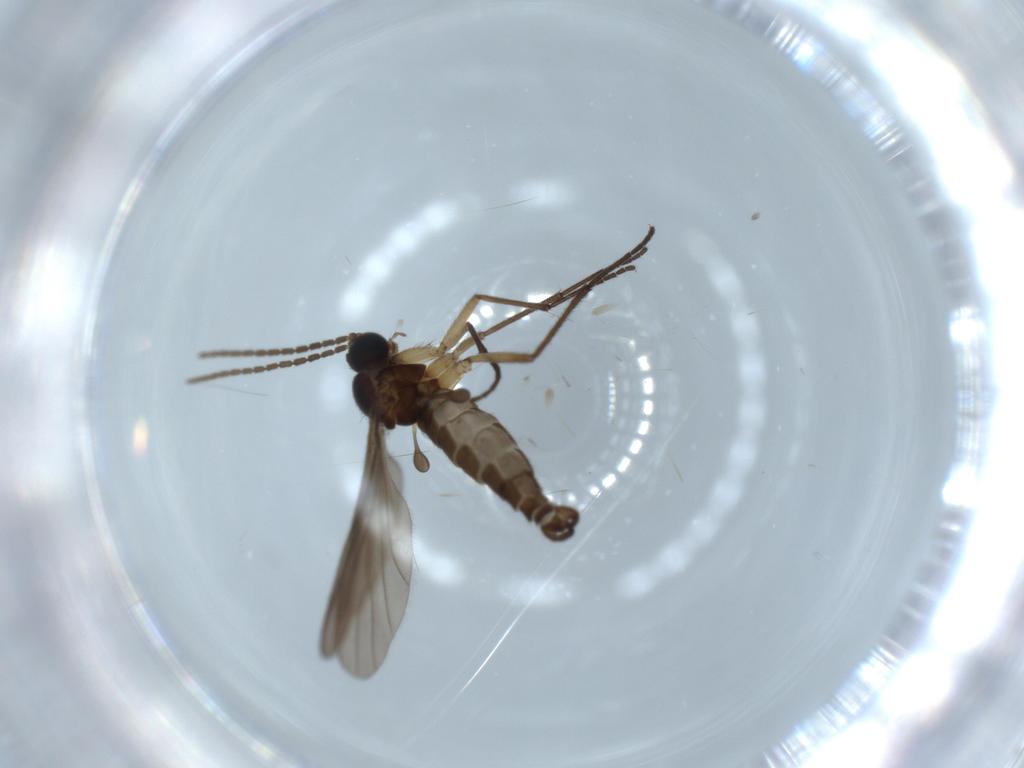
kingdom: Animalia
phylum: Arthropoda
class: Insecta
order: Diptera
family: Sciaridae
